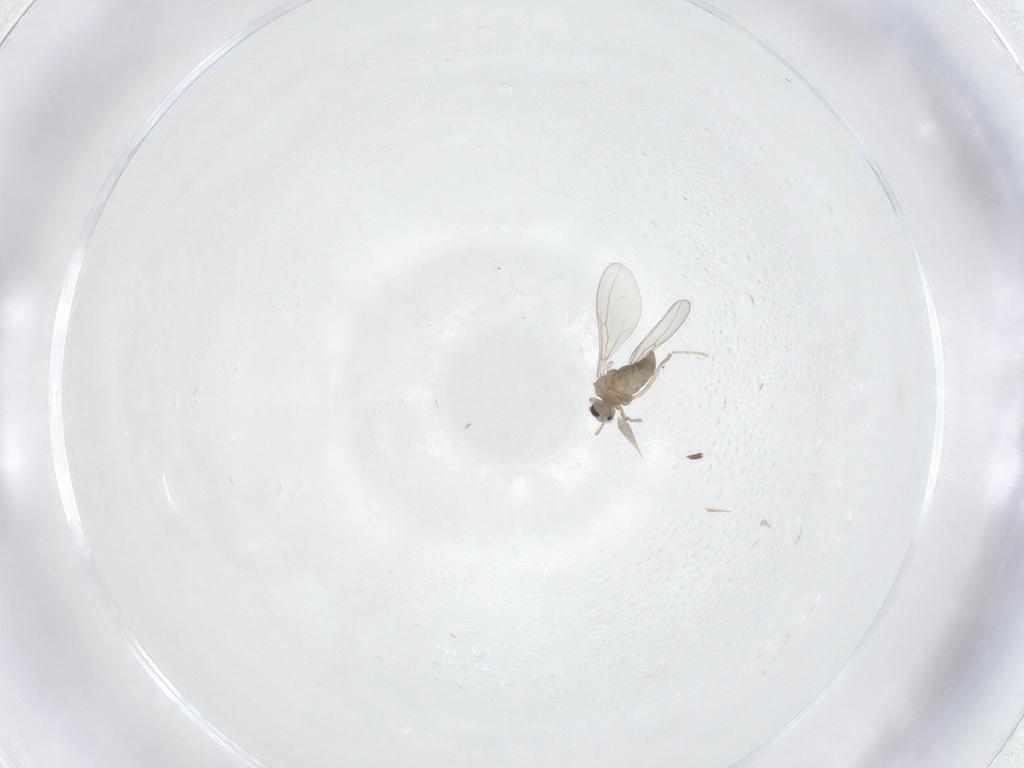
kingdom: Animalia
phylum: Arthropoda
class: Insecta
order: Diptera
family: Cecidomyiidae
